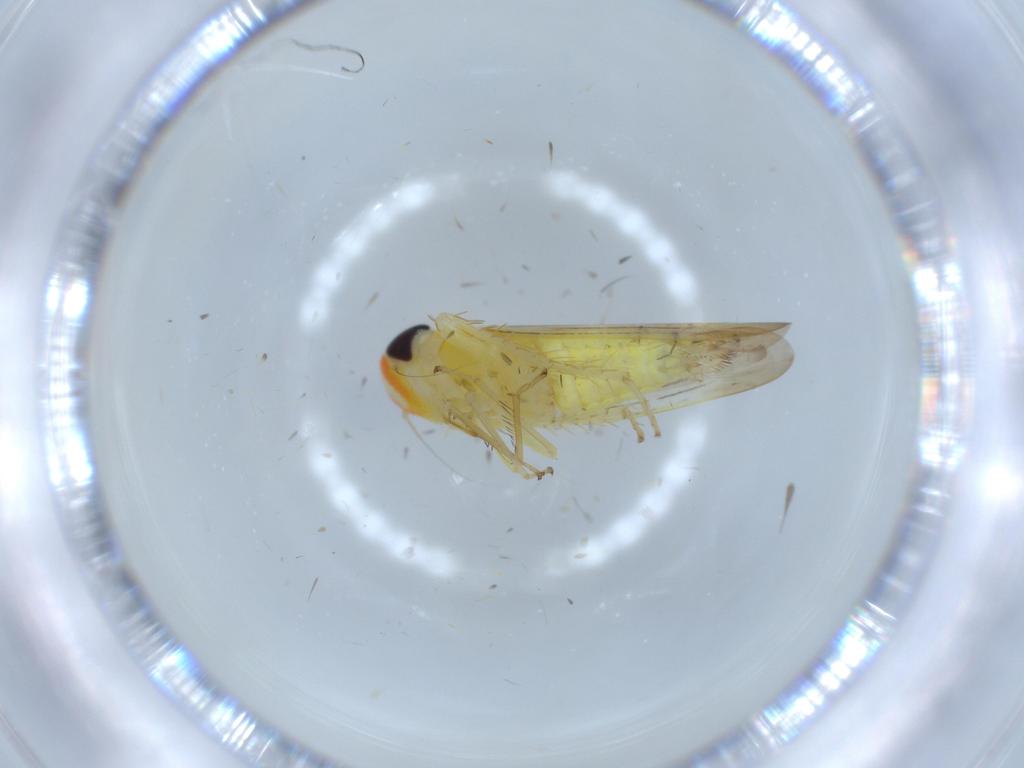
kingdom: Animalia
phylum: Arthropoda
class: Insecta
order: Hemiptera
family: Cicadellidae
